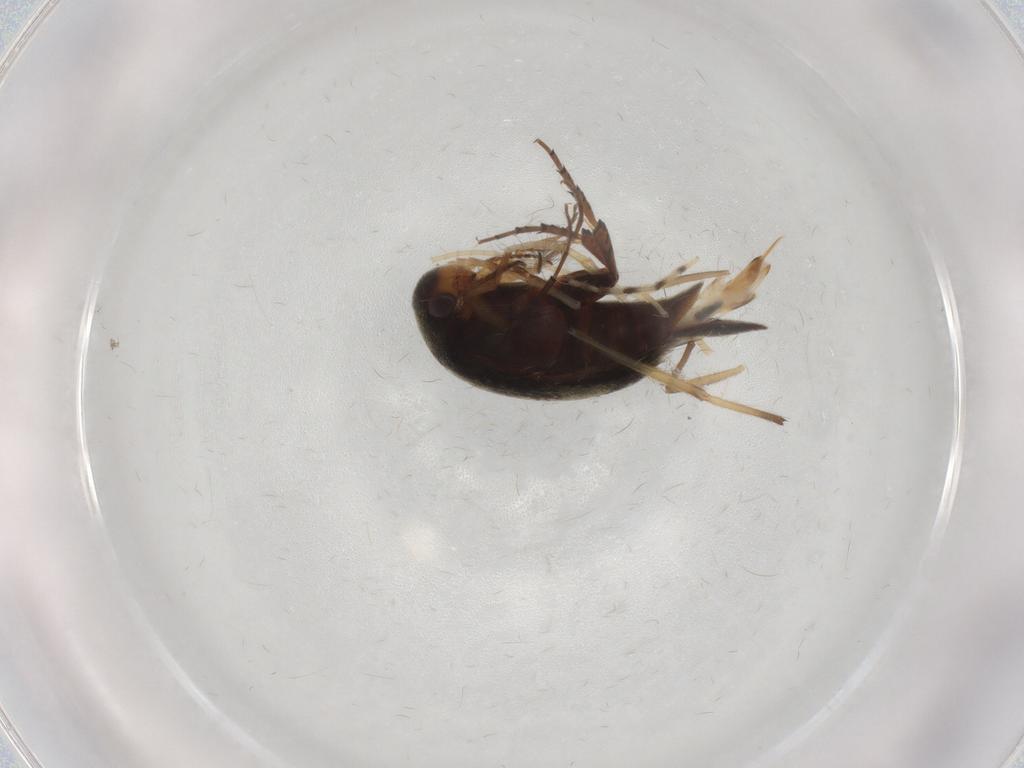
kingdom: Animalia
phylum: Arthropoda
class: Insecta
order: Coleoptera
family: Mordellidae
